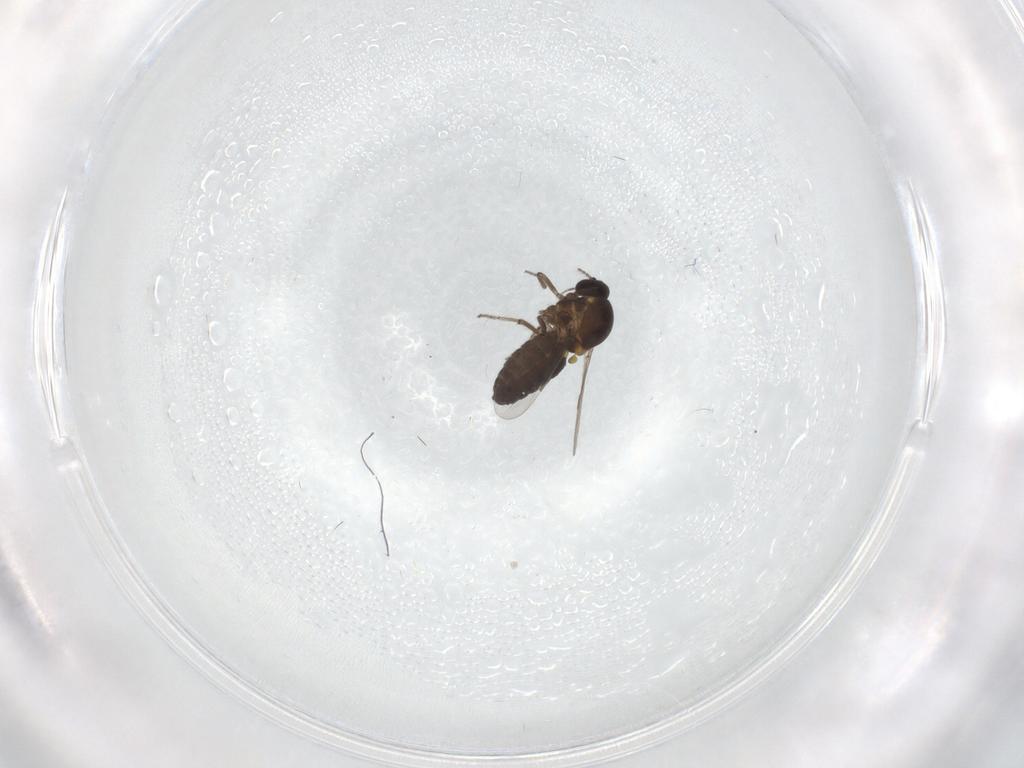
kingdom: Animalia
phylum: Arthropoda
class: Insecta
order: Diptera
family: Ceratopogonidae
